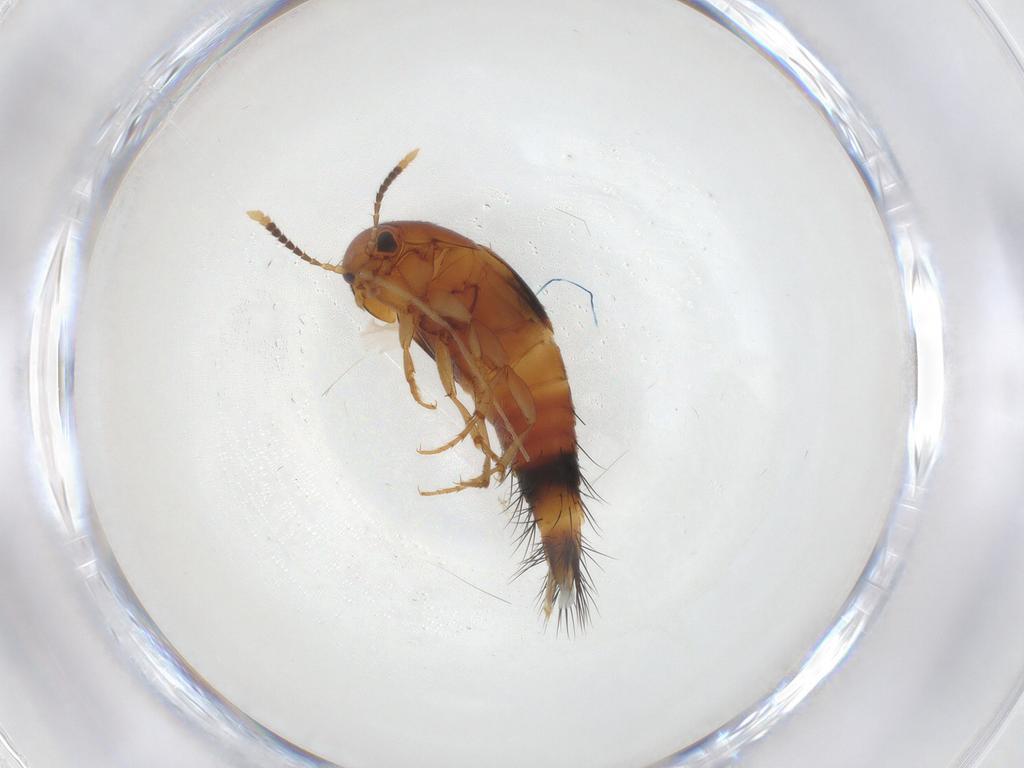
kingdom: Animalia
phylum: Arthropoda
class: Insecta
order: Coleoptera
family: Staphylinidae
